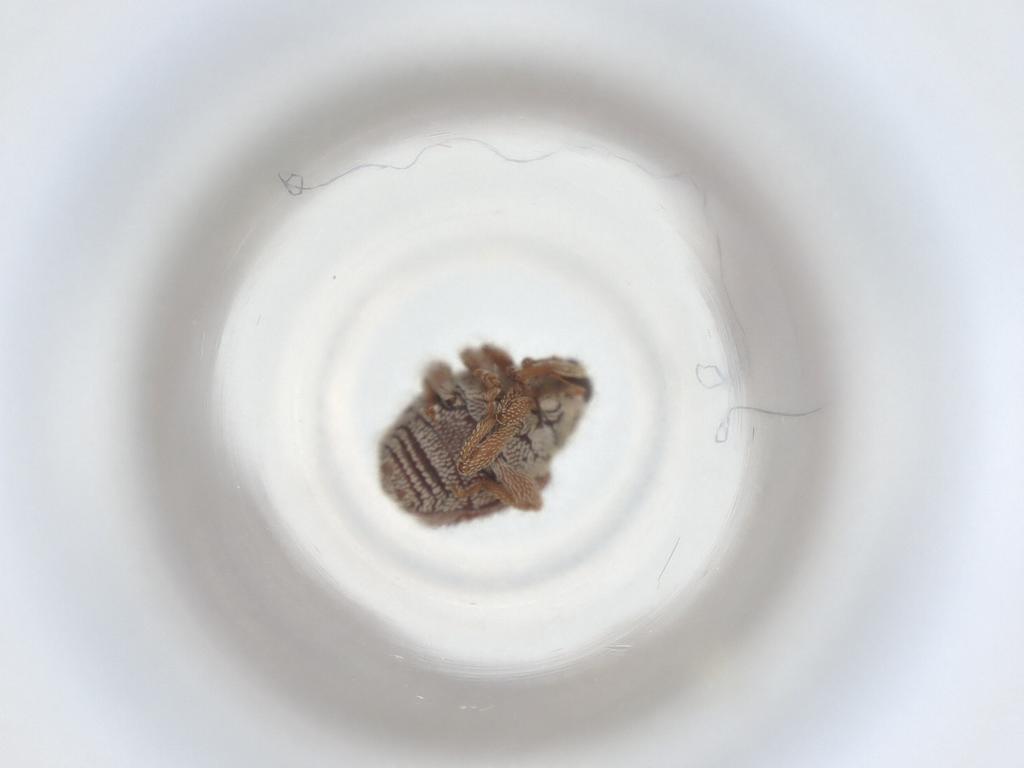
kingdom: Animalia
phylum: Arthropoda
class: Insecta
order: Coleoptera
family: Curculionidae
